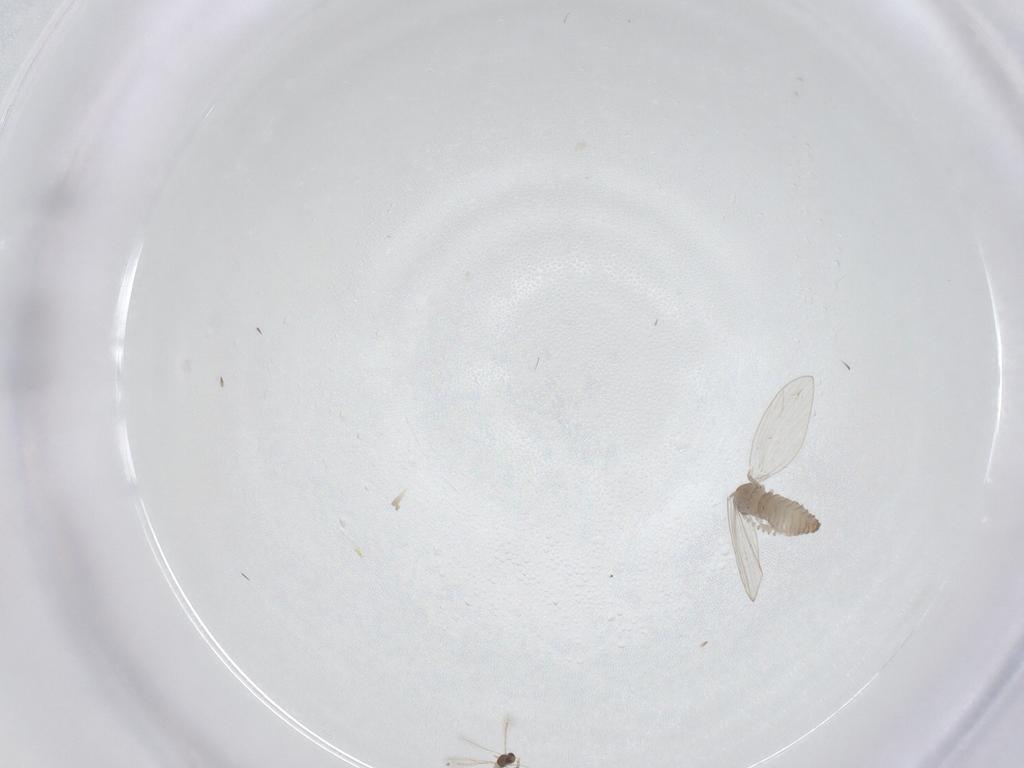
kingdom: Animalia
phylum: Arthropoda
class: Insecta
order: Diptera
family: Psychodidae
